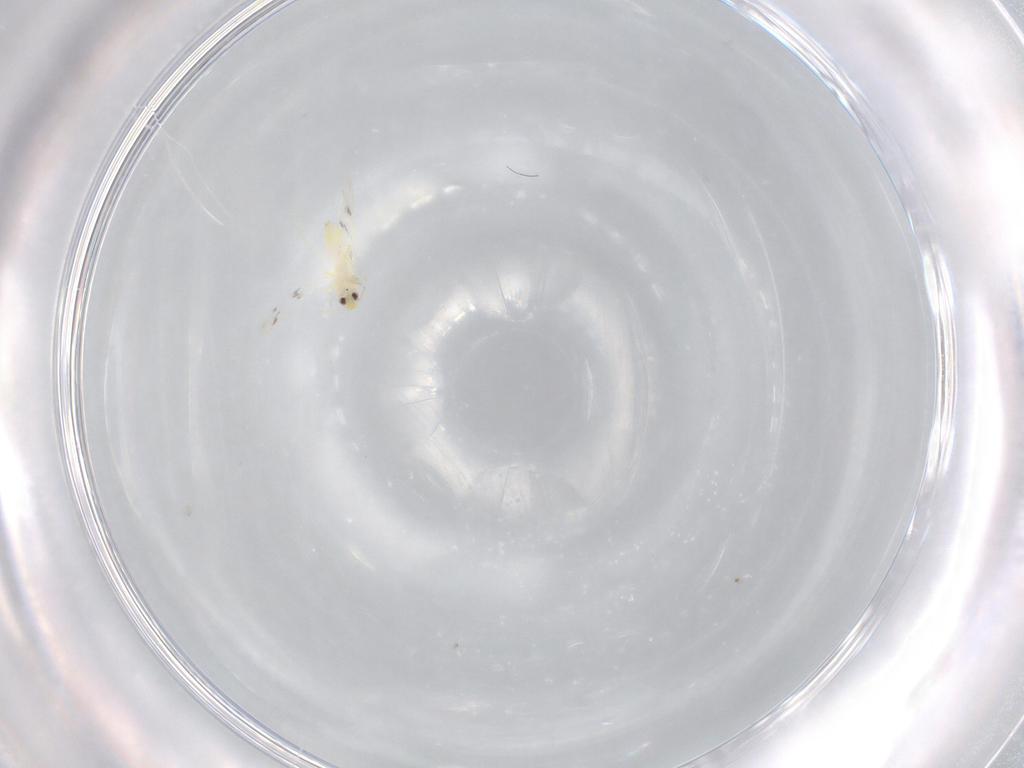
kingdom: Animalia
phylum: Arthropoda
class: Insecta
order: Hemiptera
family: Aleyrodidae
